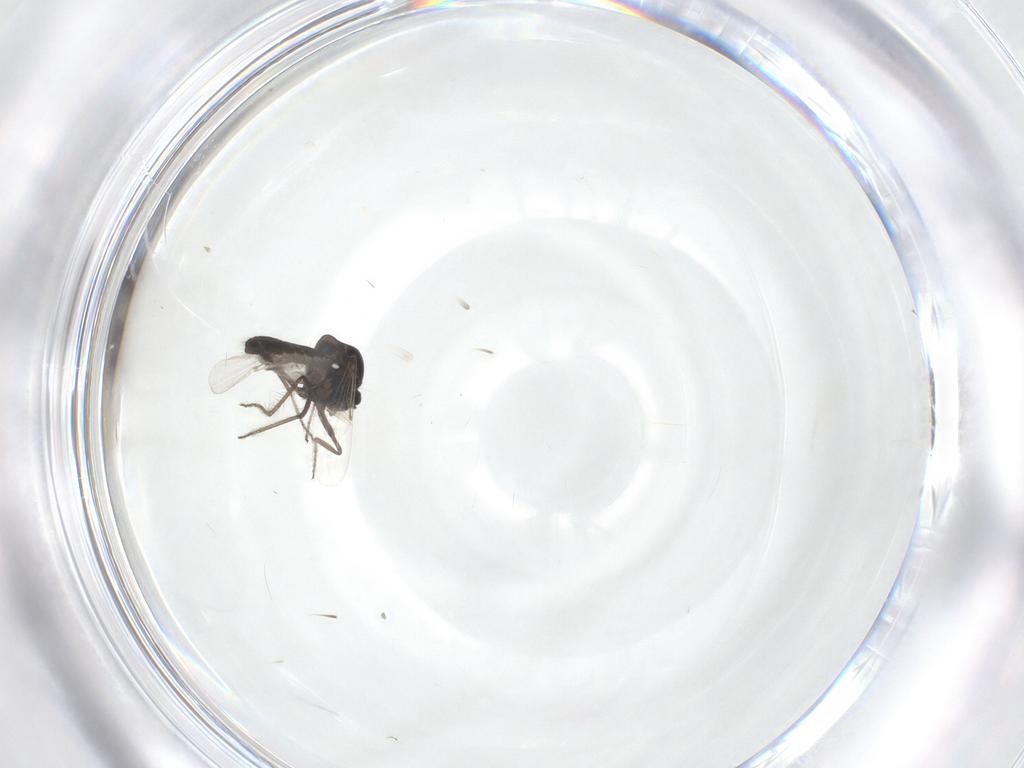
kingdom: Animalia
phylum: Arthropoda
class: Insecta
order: Diptera
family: Ceratopogonidae
